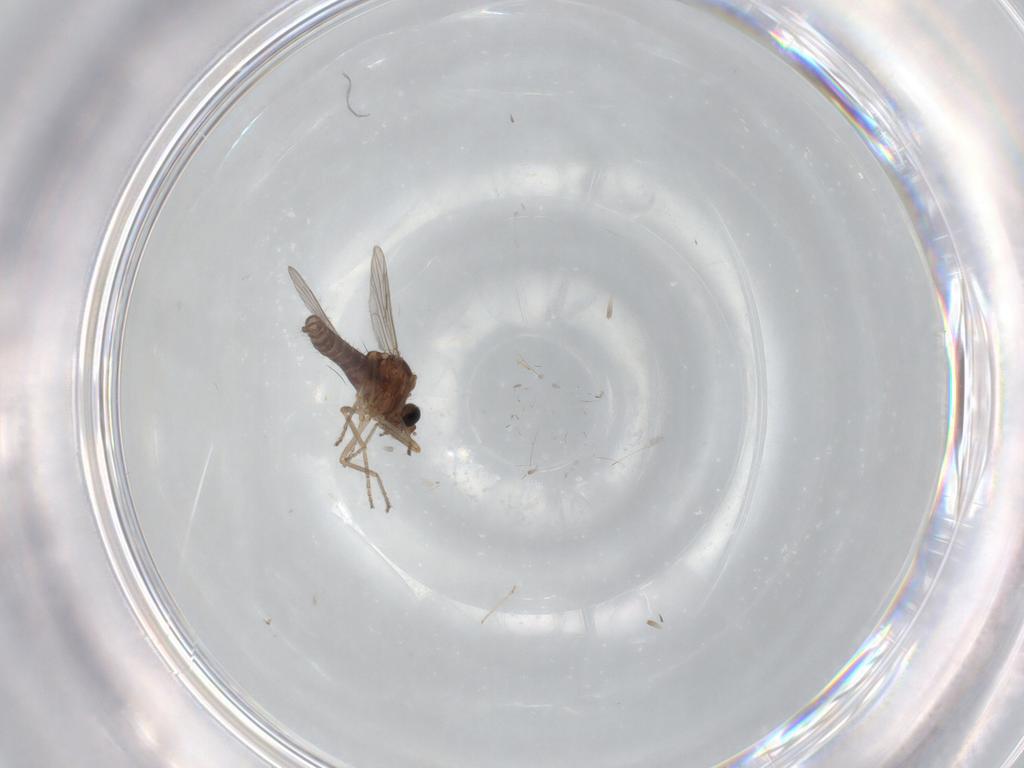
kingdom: Animalia
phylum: Arthropoda
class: Insecta
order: Diptera
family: Ceratopogonidae
